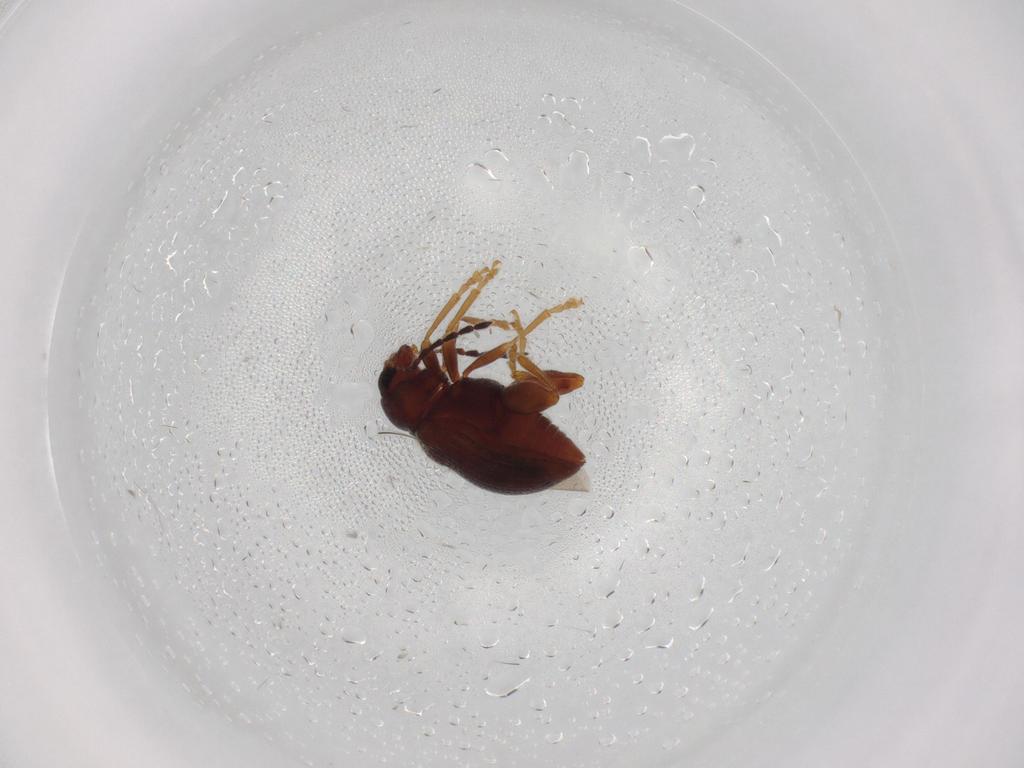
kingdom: Animalia
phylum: Arthropoda
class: Insecta
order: Coleoptera
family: Chrysomelidae
